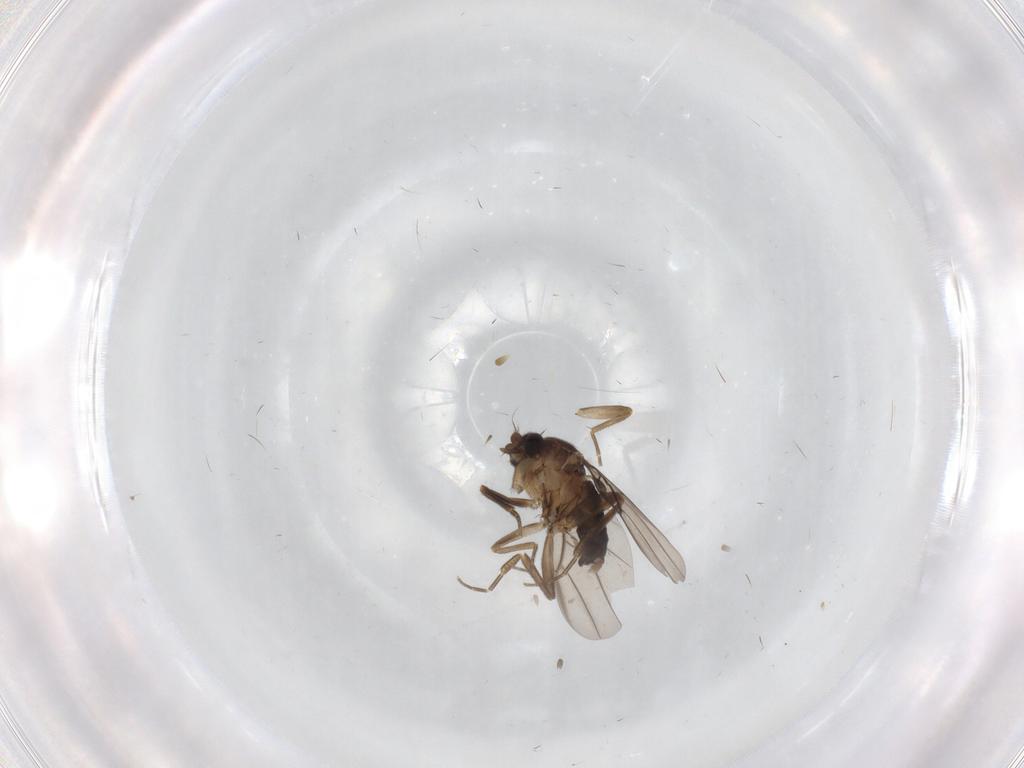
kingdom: Animalia
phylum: Arthropoda
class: Insecta
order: Diptera
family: Psychodidae
